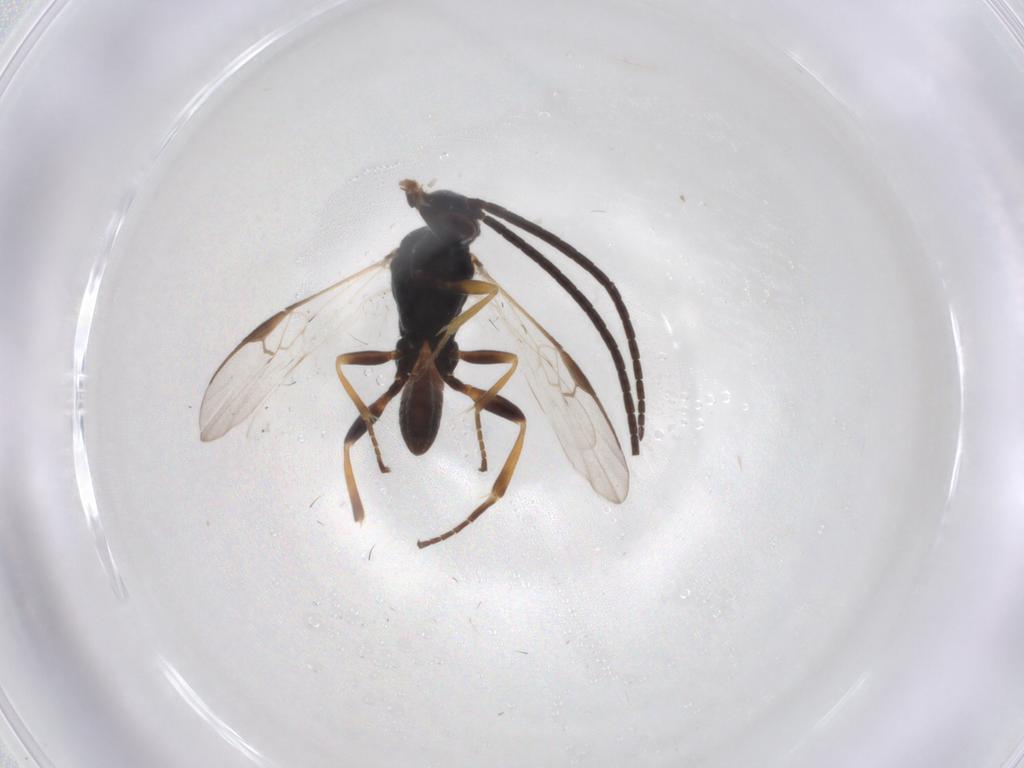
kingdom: Animalia
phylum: Arthropoda
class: Insecta
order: Hymenoptera
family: Braconidae
